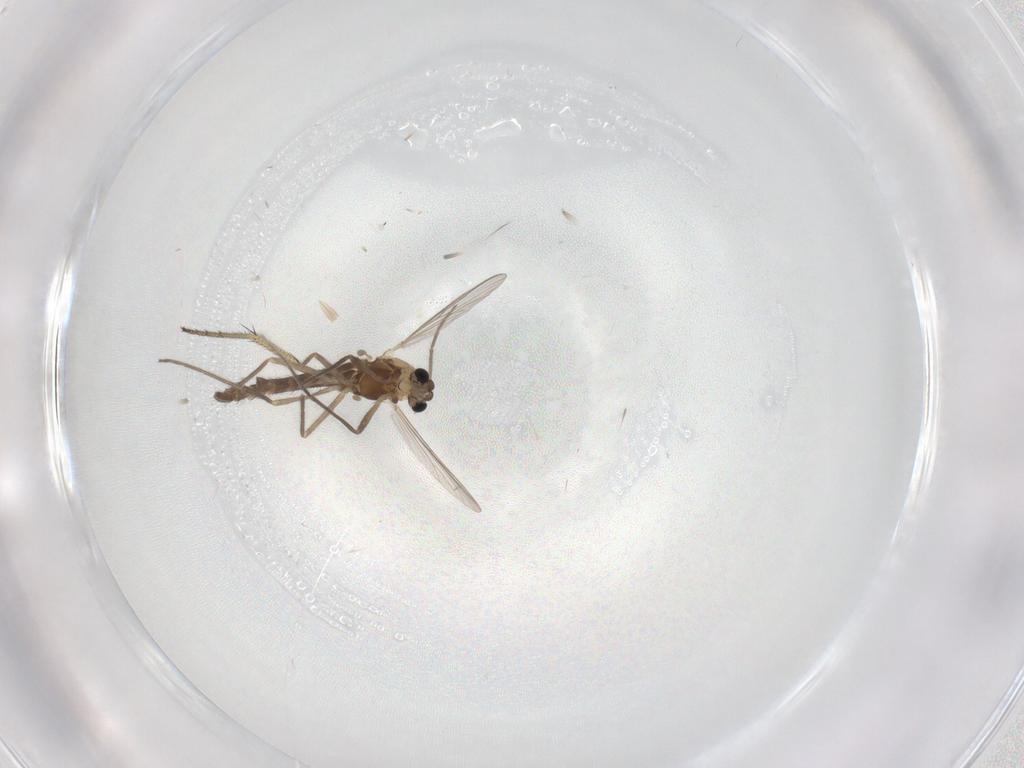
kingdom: Animalia
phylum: Arthropoda
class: Insecta
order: Diptera
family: Chironomidae
